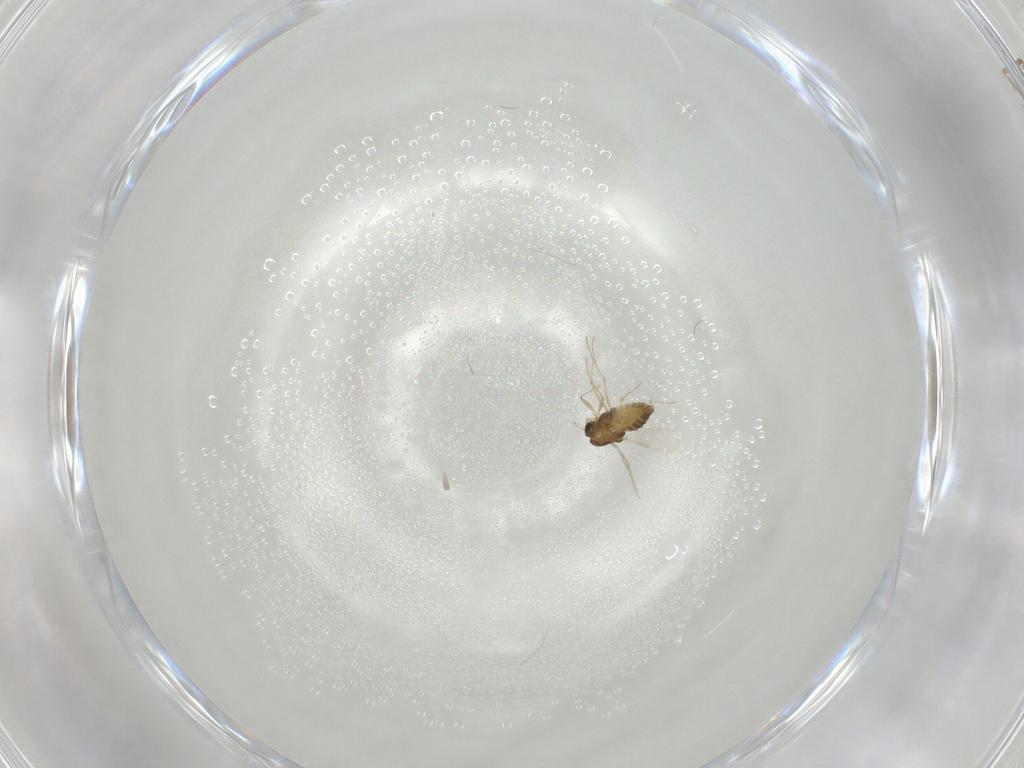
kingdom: Animalia
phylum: Arthropoda
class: Insecta
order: Diptera
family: Chironomidae
